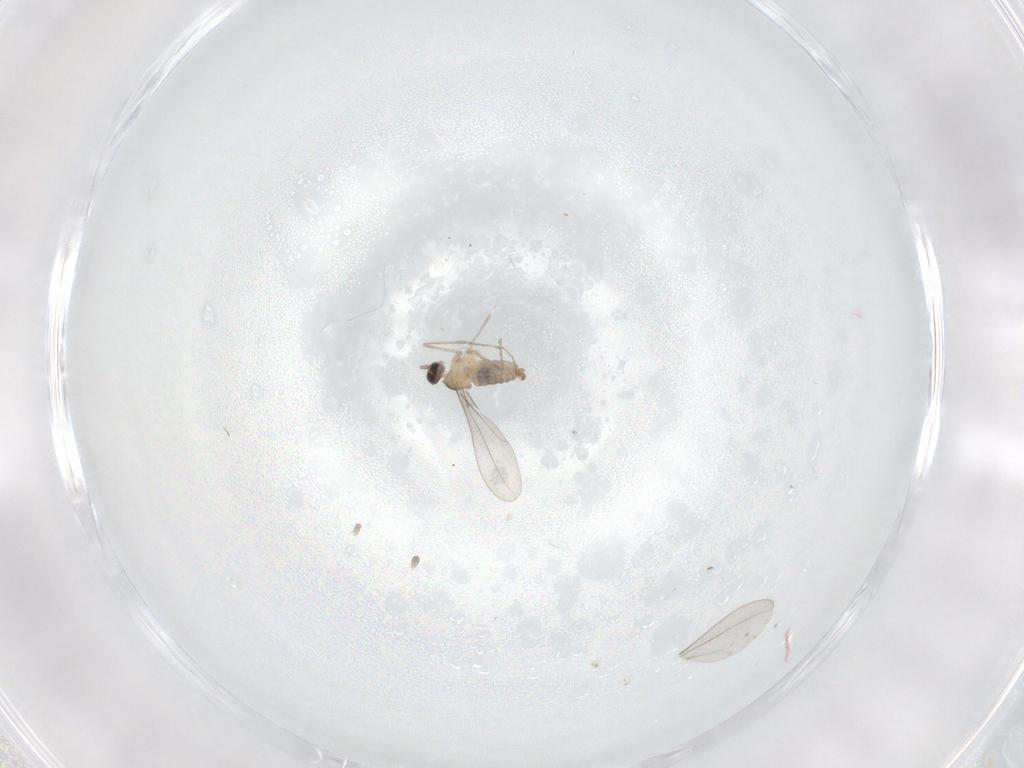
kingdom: Animalia
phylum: Arthropoda
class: Insecta
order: Diptera
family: Cecidomyiidae
